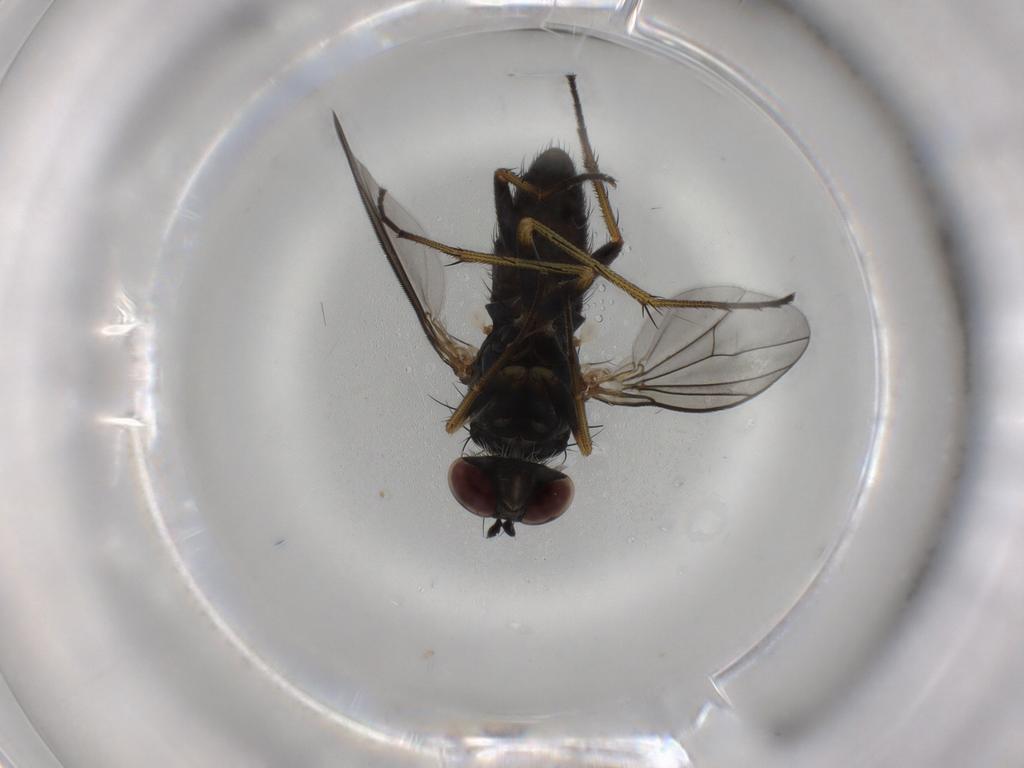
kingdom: Animalia
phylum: Arthropoda
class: Insecta
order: Diptera
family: Dolichopodidae
